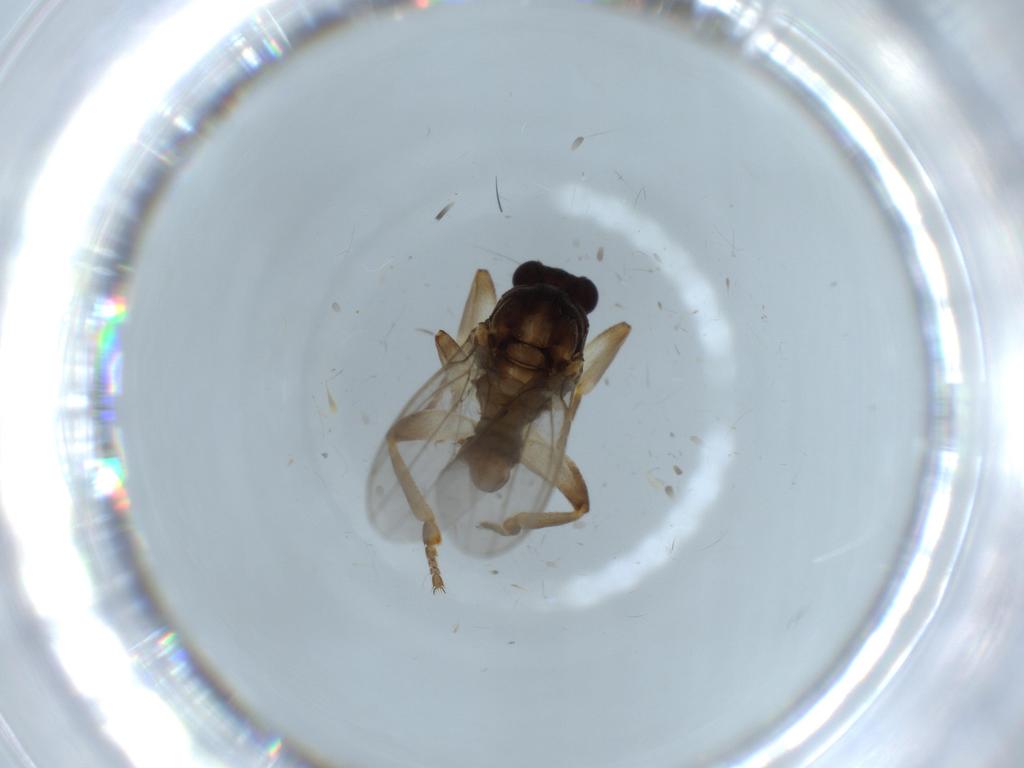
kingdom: Animalia
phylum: Arthropoda
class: Insecta
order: Diptera
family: Sphaeroceridae
